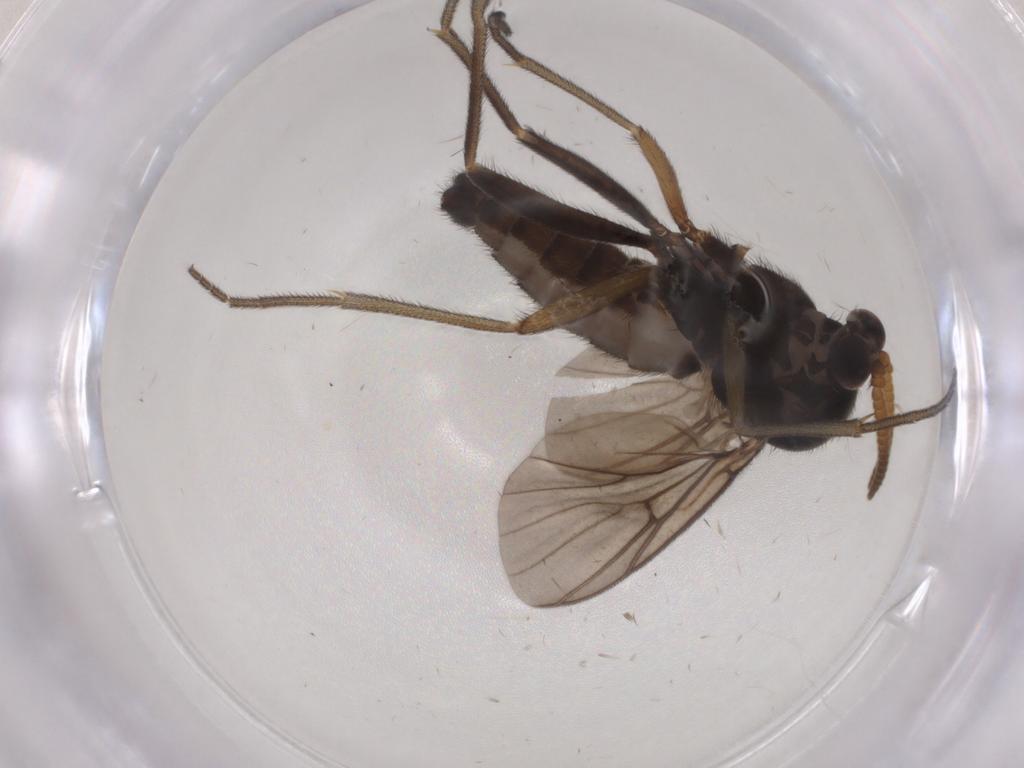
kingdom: Animalia
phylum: Arthropoda
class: Insecta
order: Diptera
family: Mycetophilidae
